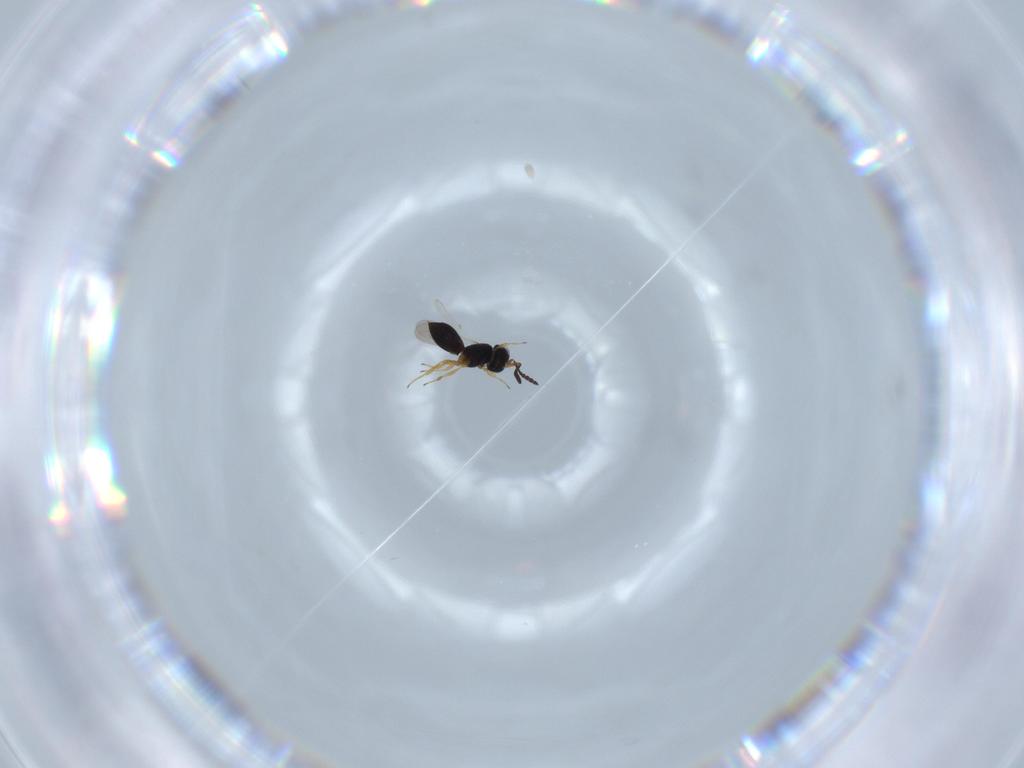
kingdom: Animalia
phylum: Arthropoda
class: Insecta
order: Hymenoptera
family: Scelionidae
